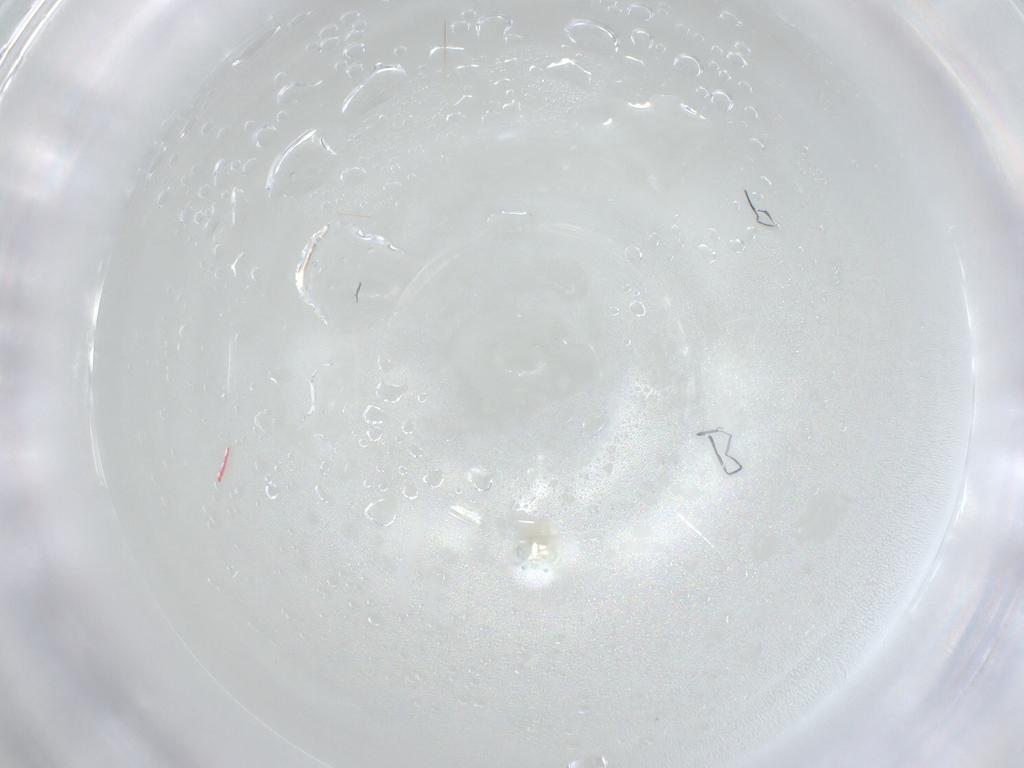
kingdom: Animalia
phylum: Arthropoda
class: Arachnida
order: Trombidiformes
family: Arrenuridae
